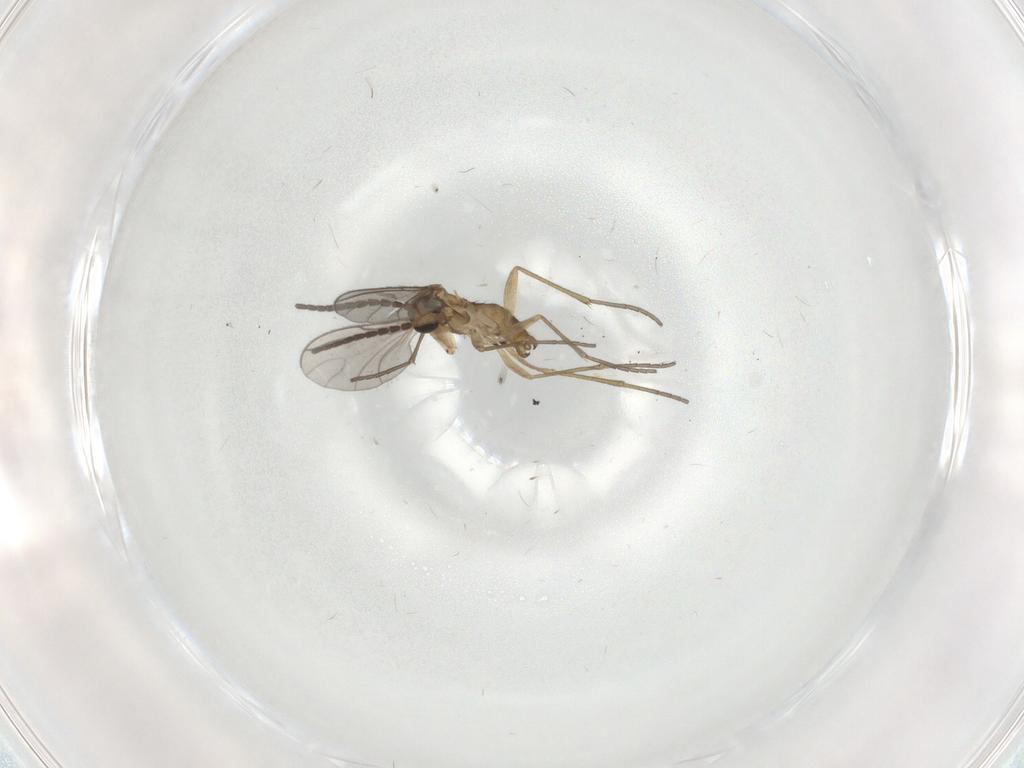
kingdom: Animalia
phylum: Arthropoda
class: Insecta
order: Diptera
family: Sciaridae
